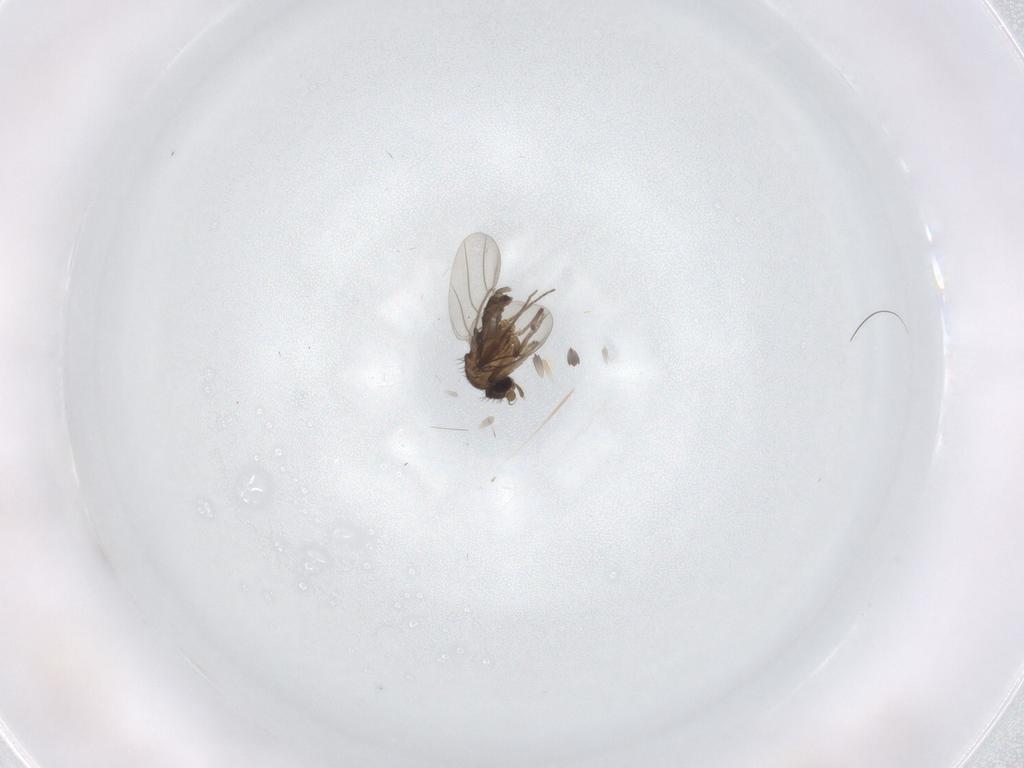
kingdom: Animalia
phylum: Arthropoda
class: Insecta
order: Diptera
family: Phoridae
